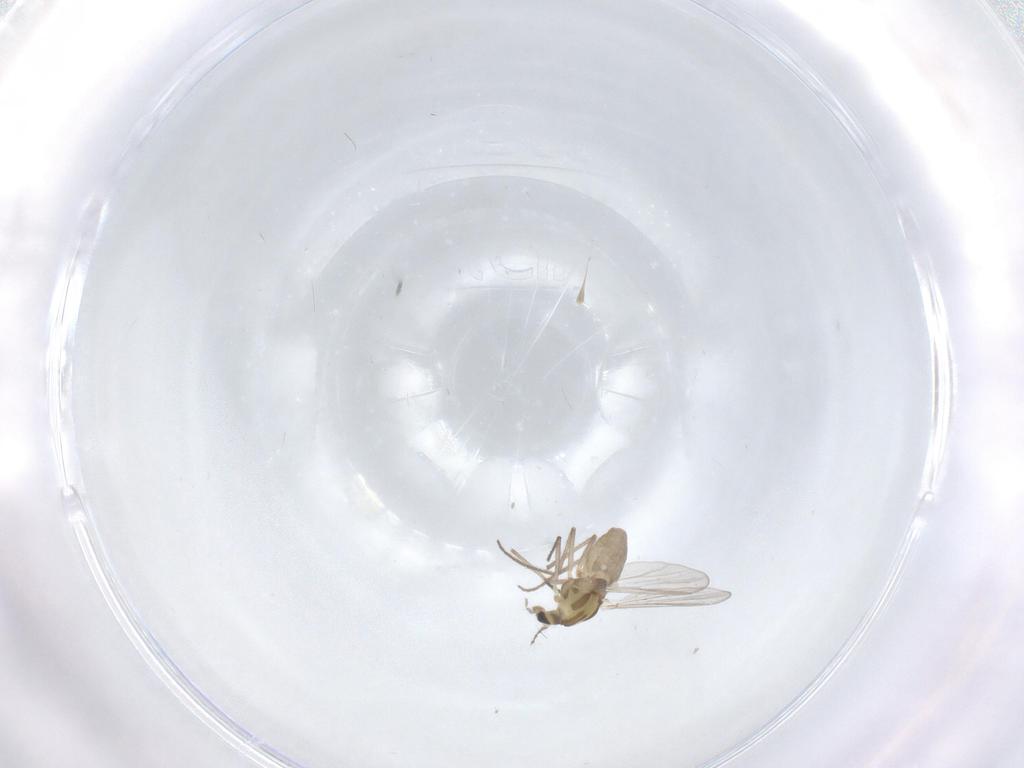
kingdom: Animalia
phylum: Arthropoda
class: Insecta
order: Diptera
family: Chironomidae
